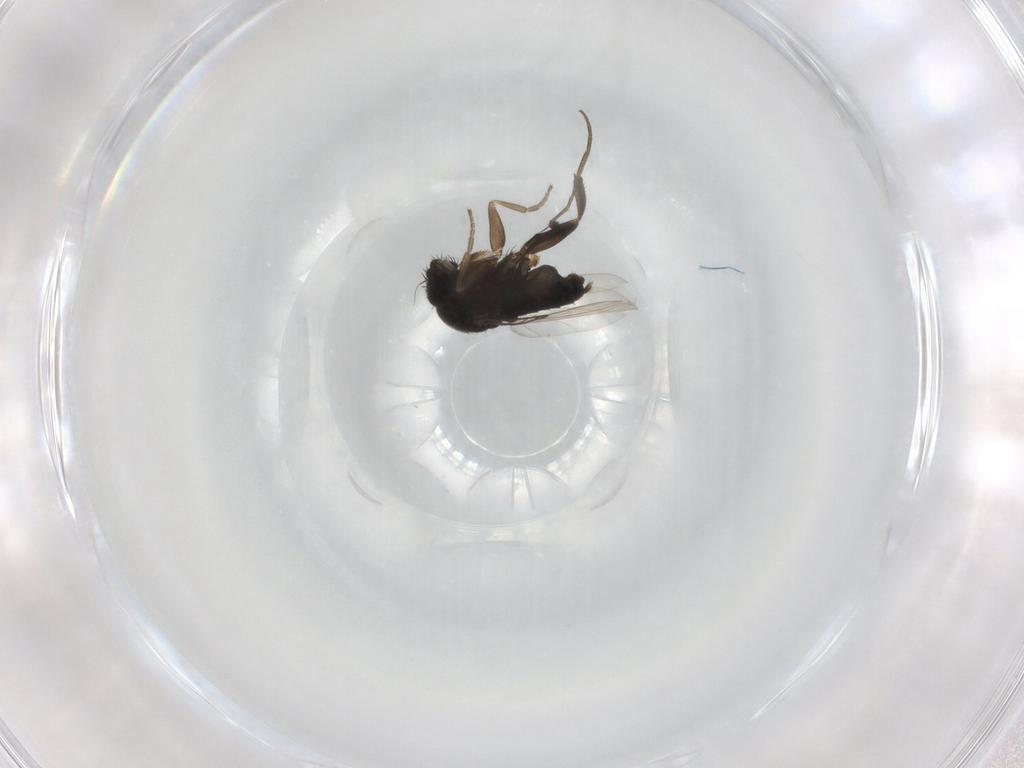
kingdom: Animalia
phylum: Arthropoda
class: Insecta
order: Diptera
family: Phoridae
